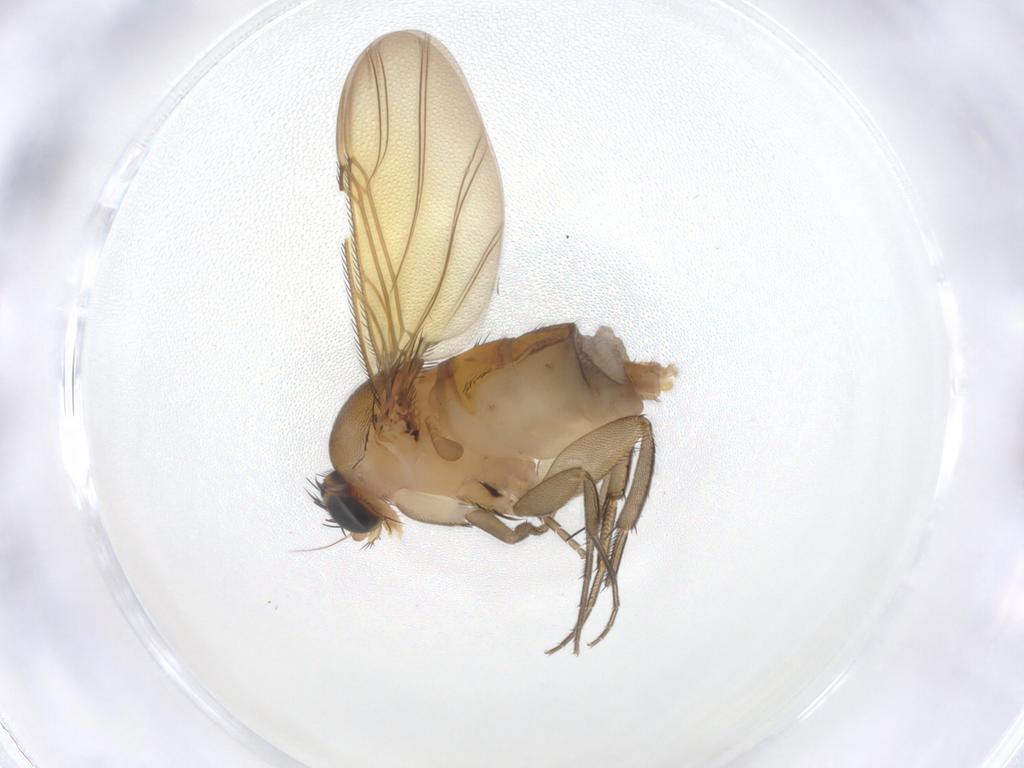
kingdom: Animalia
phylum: Arthropoda
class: Insecta
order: Diptera
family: Phoridae
